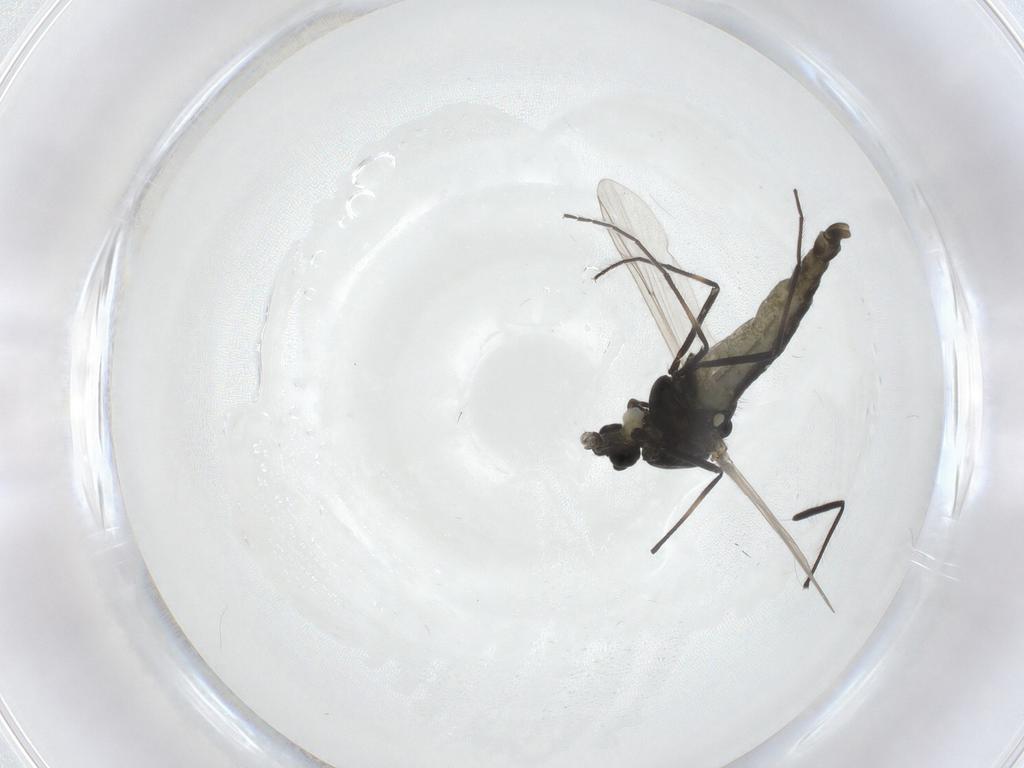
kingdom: Animalia
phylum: Arthropoda
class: Insecta
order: Diptera
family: Chironomidae
